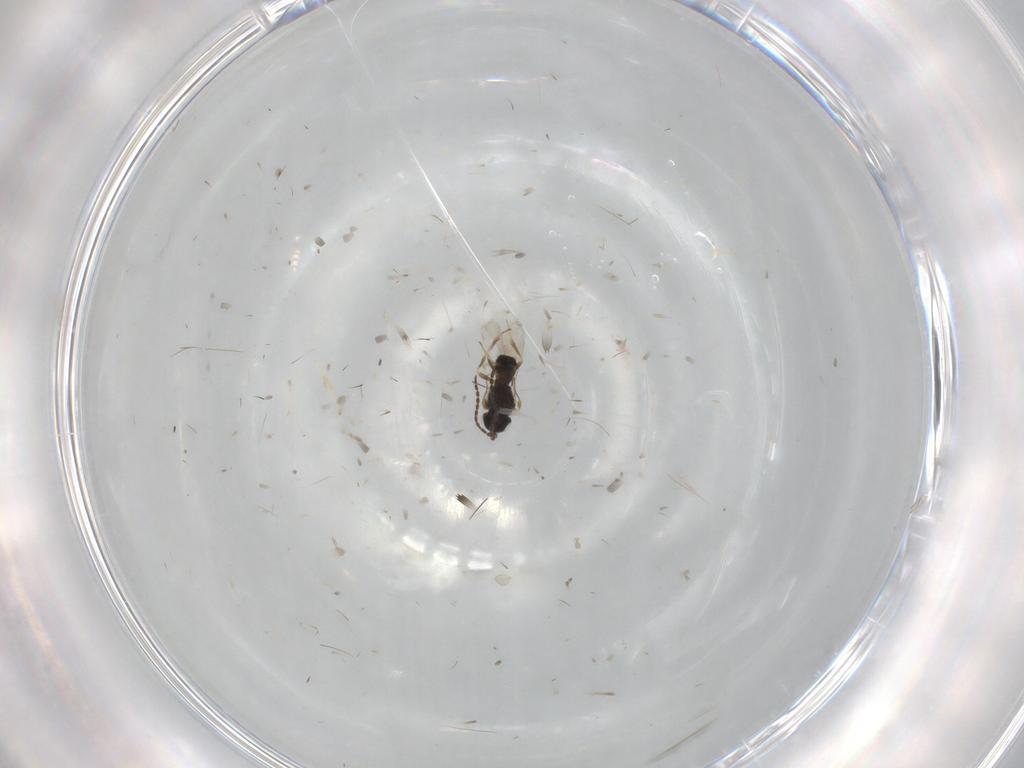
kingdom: Animalia
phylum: Arthropoda
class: Insecta
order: Hymenoptera
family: Scelionidae
